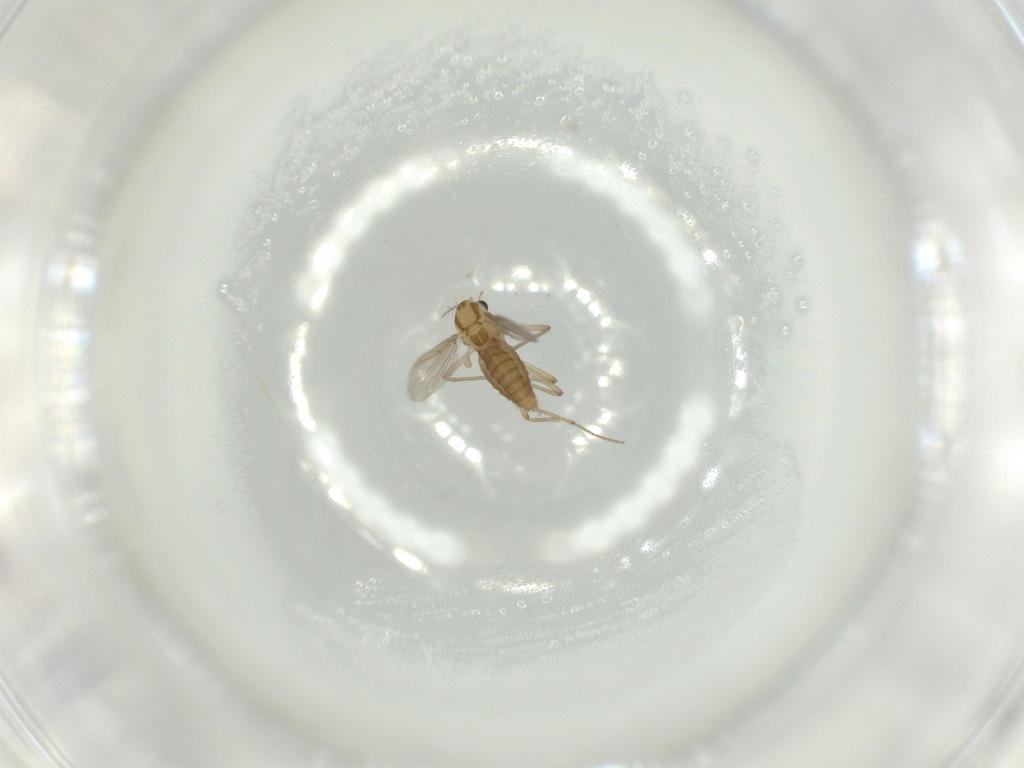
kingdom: Animalia
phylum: Arthropoda
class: Insecta
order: Diptera
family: Chironomidae
